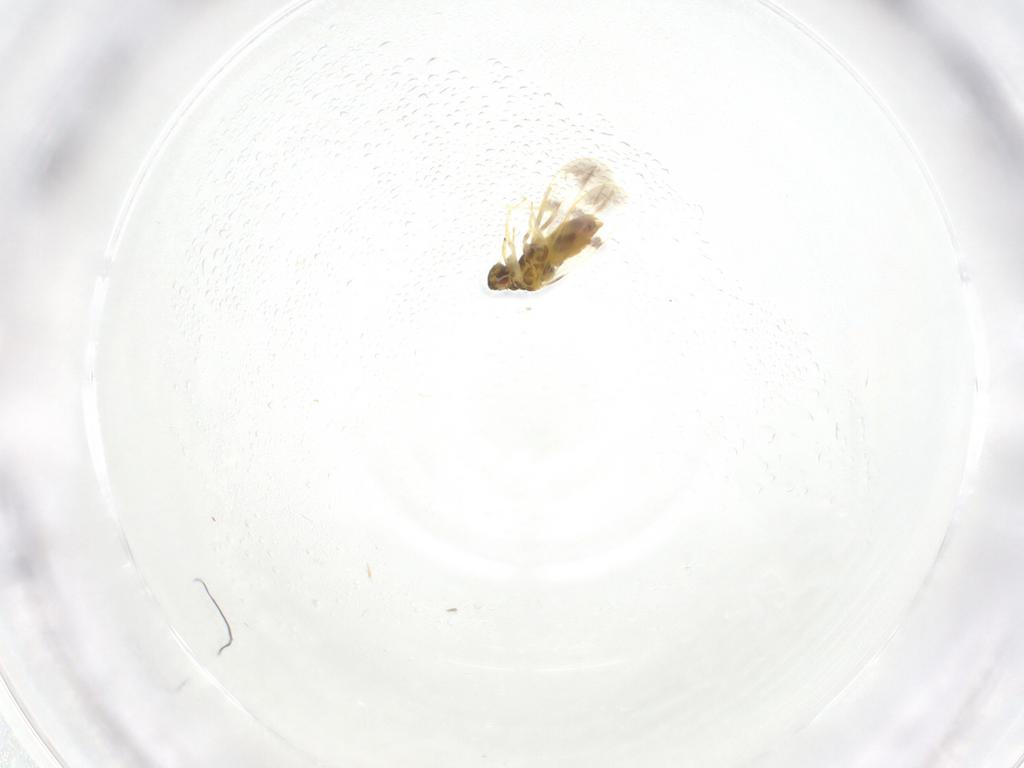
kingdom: Animalia
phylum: Arthropoda
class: Insecta
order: Hemiptera
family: Aleyrodidae
